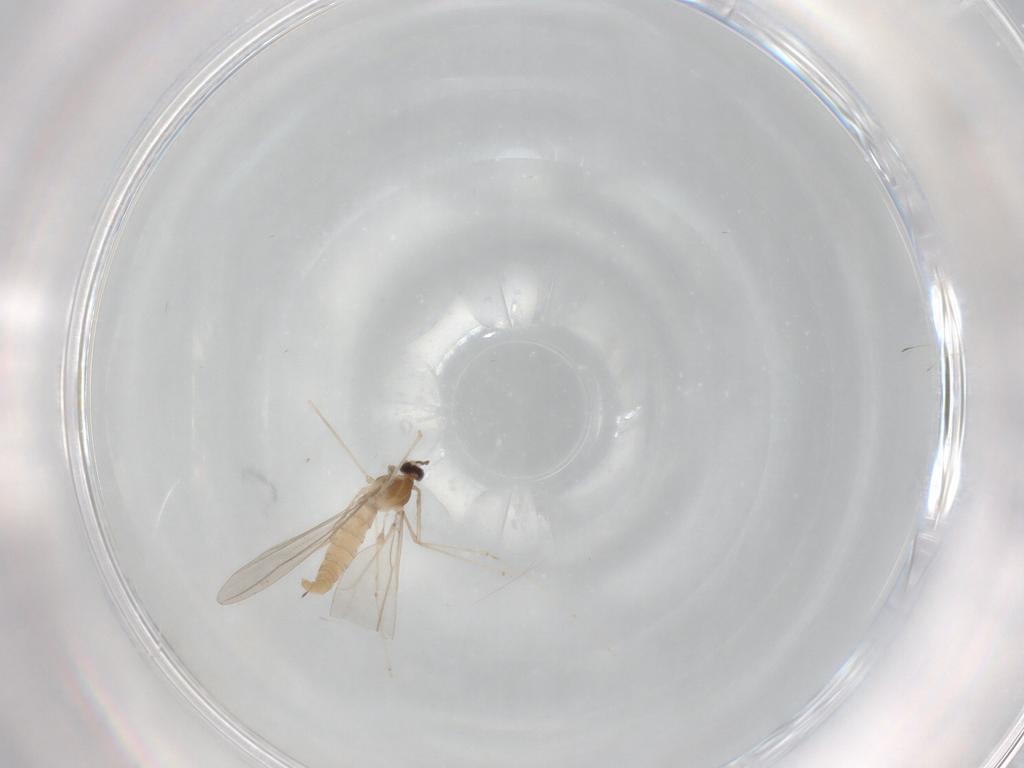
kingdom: Animalia
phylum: Arthropoda
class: Insecta
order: Diptera
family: Cecidomyiidae
